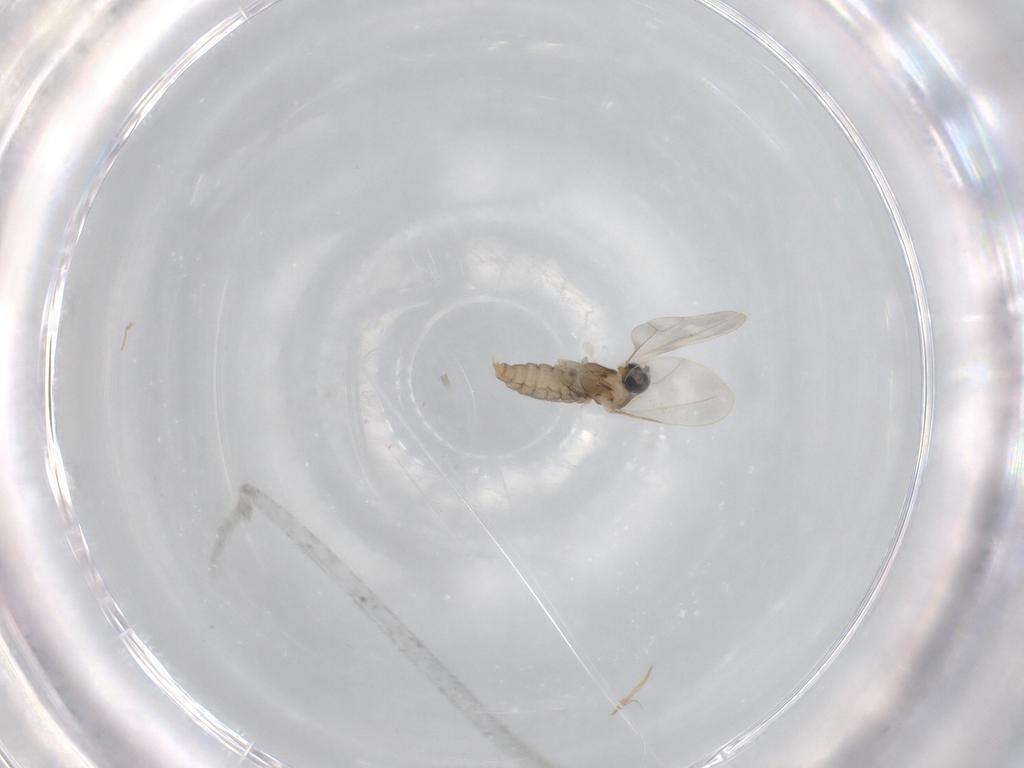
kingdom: Animalia
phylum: Arthropoda
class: Insecta
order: Diptera
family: Cecidomyiidae
